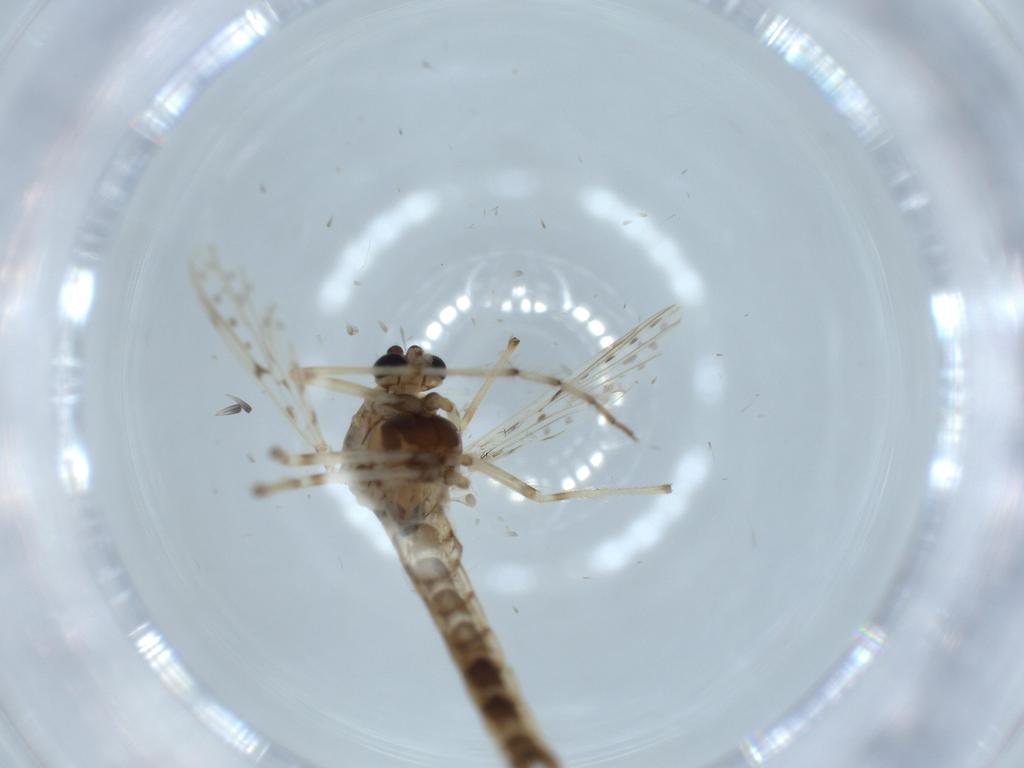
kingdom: Animalia
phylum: Arthropoda
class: Insecta
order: Diptera
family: Chironomidae
